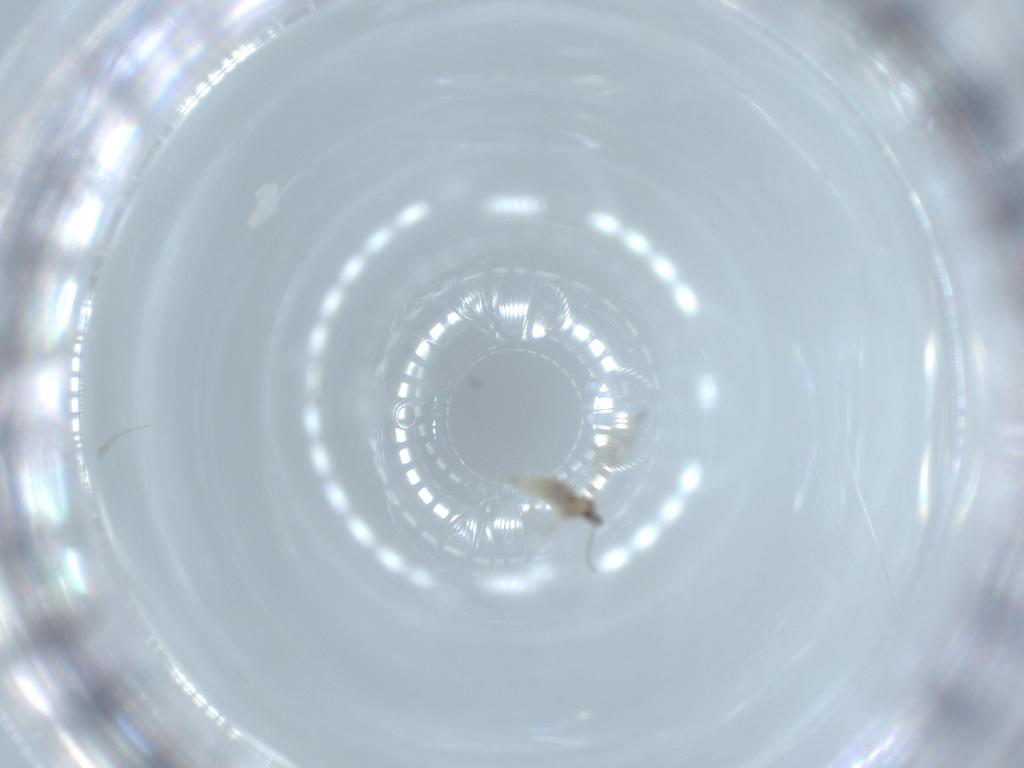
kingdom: Animalia
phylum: Arthropoda
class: Insecta
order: Diptera
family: Cecidomyiidae
